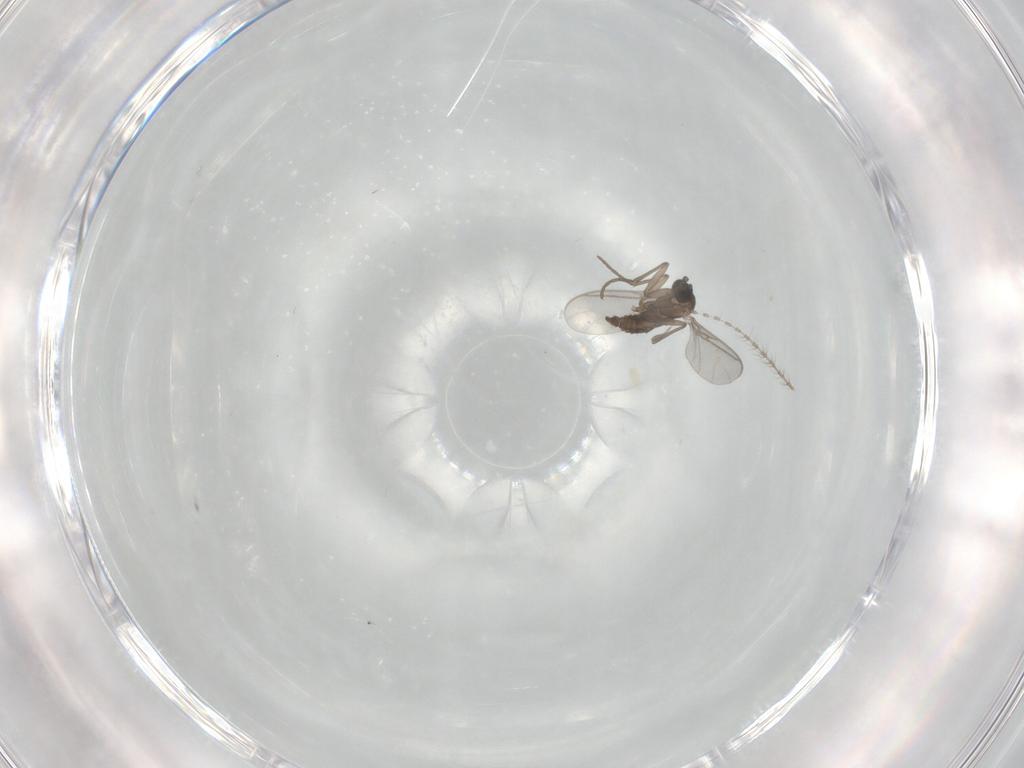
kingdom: Animalia
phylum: Arthropoda
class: Insecta
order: Diptera
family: Sciaridae
